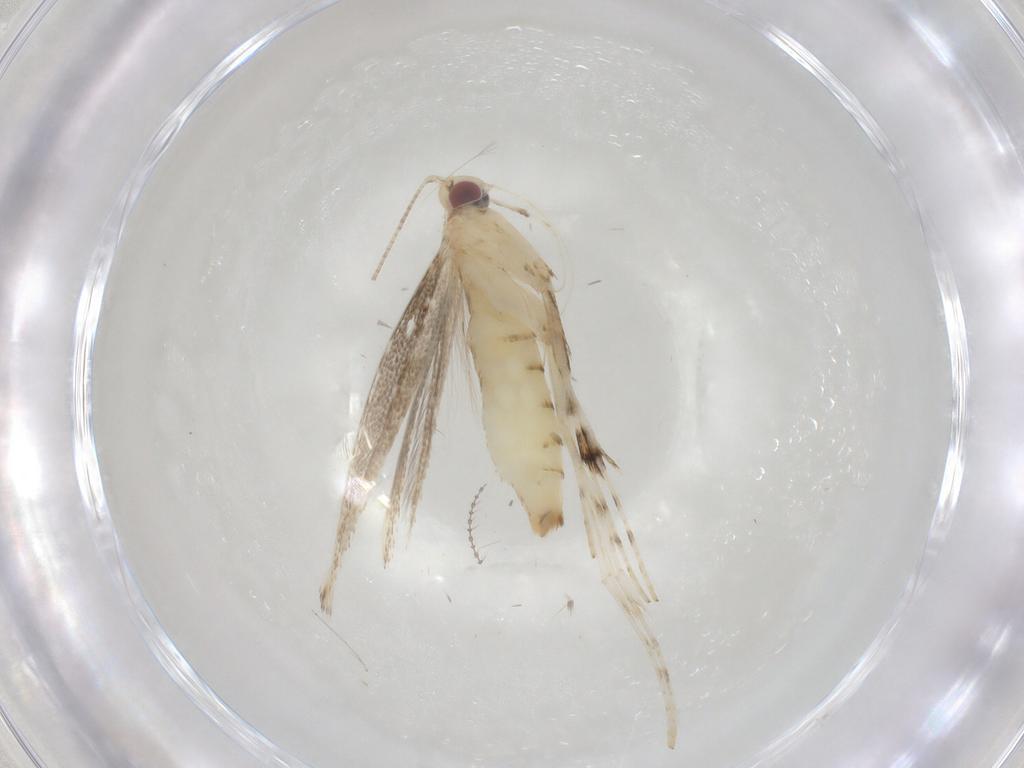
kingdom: Animalia
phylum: Arthropoda
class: Insecta
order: Lepidoptera
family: Gracillariidae
